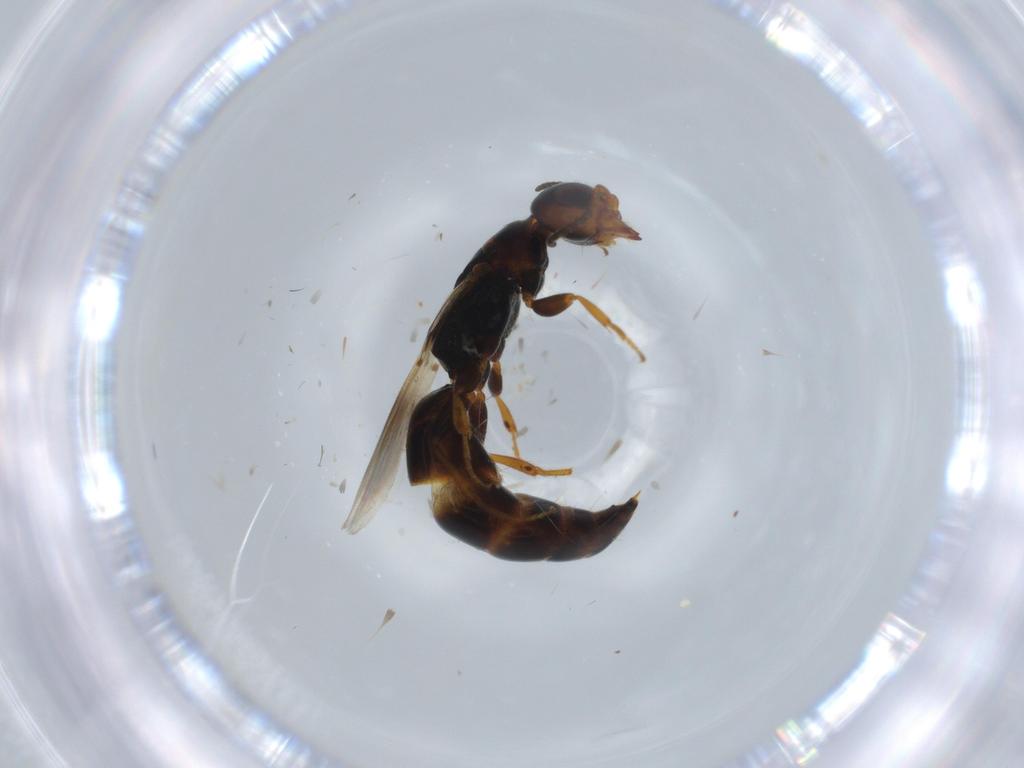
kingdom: Animalia
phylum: Arthropoda
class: Insecta
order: Hymenoptera
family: Bethylidae
